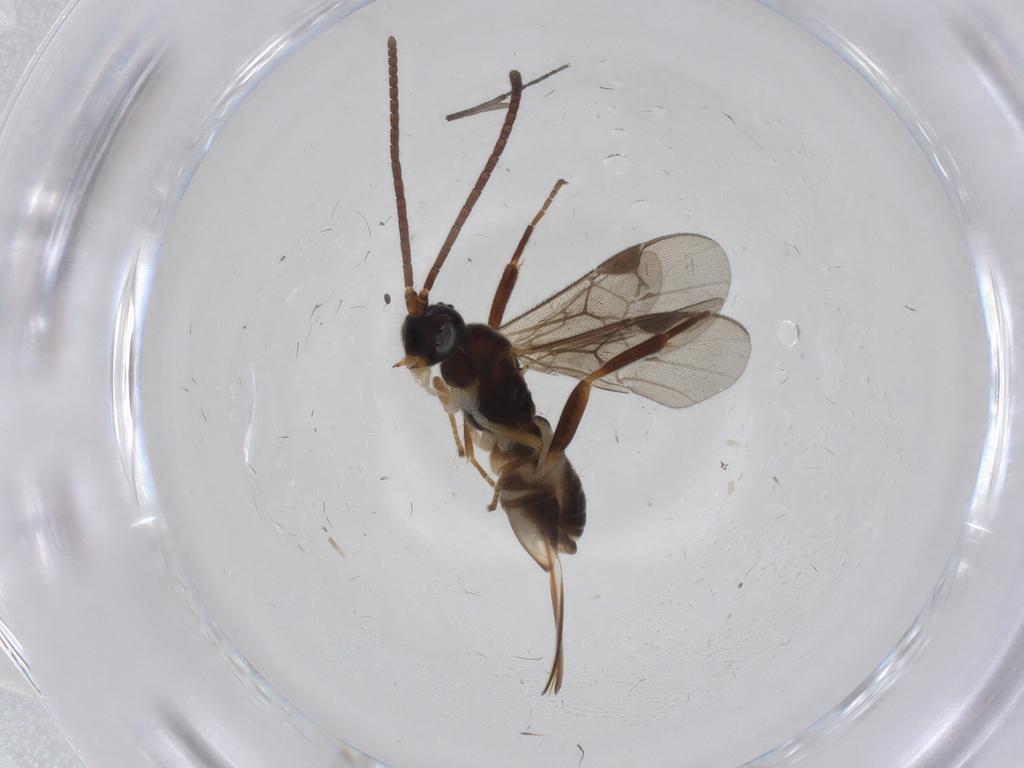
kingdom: Animalia
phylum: Arthropoda
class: Insecta
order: Hymenoptera
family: Braconidae
